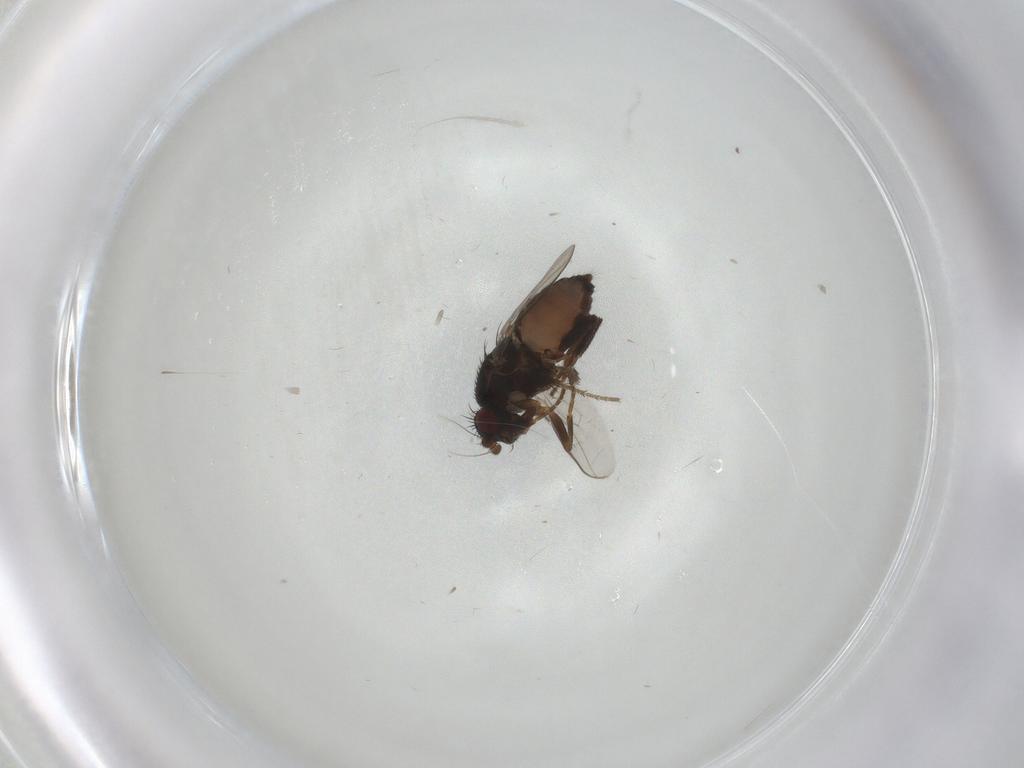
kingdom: Animalia
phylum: Arthropoda
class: Insecta
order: Diptera
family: Sphaeroceridae
